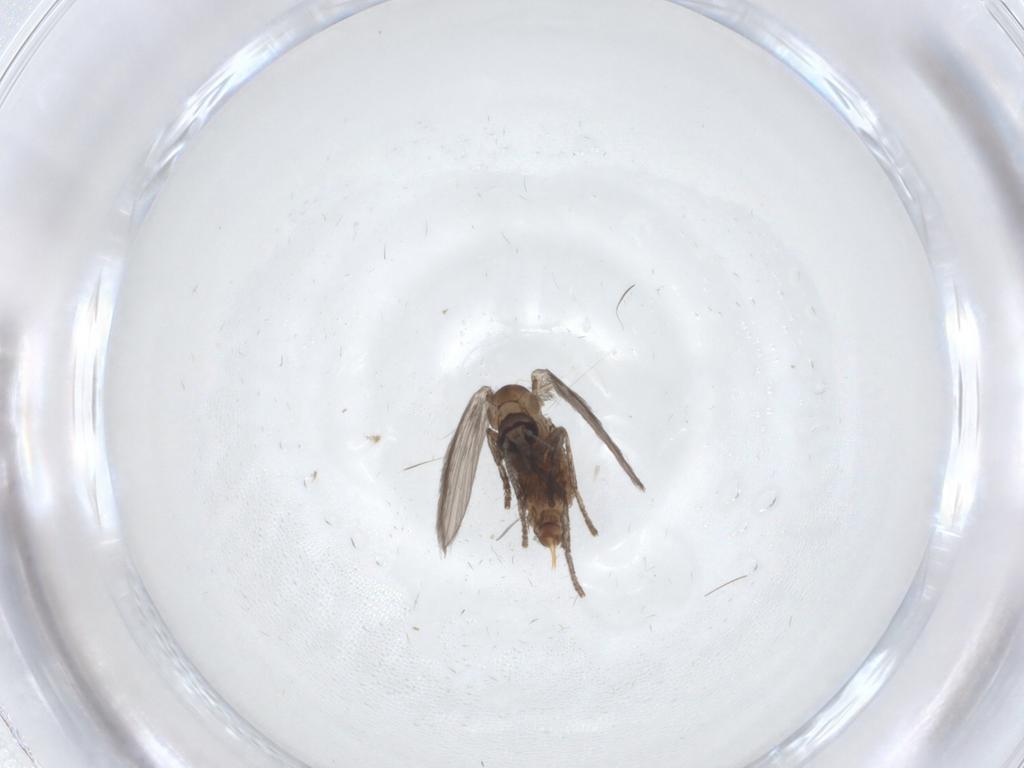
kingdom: Animalia
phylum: Arthropoda
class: Insecta
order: Diptera
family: Psychodidae
